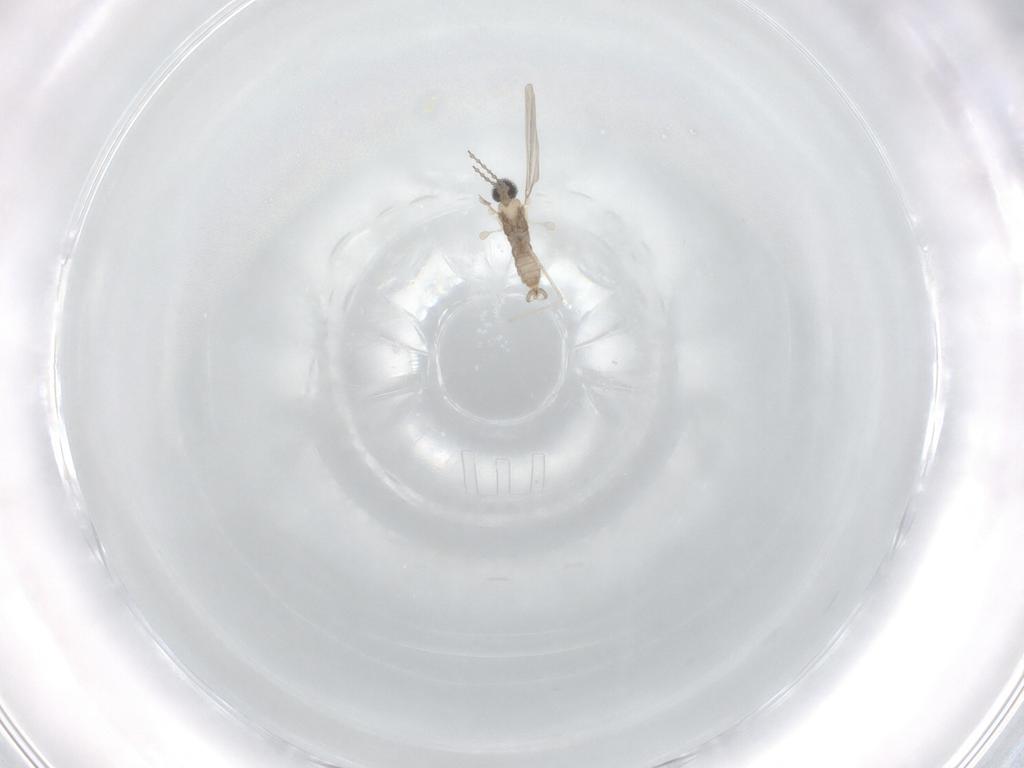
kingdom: Animalia
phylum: Arthropoda
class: Insecta
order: Diptera
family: Cecidomyiidae
